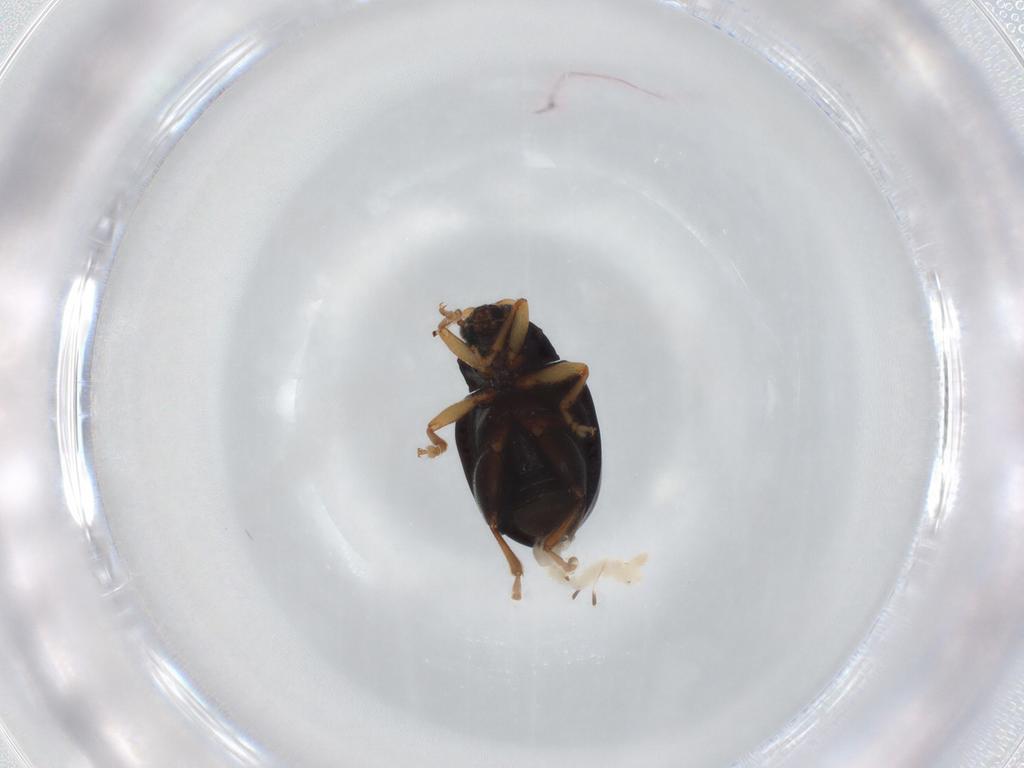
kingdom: Animalia
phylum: Arthropoda
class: Insecta
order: Coleoptera
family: Chrysomelidae
